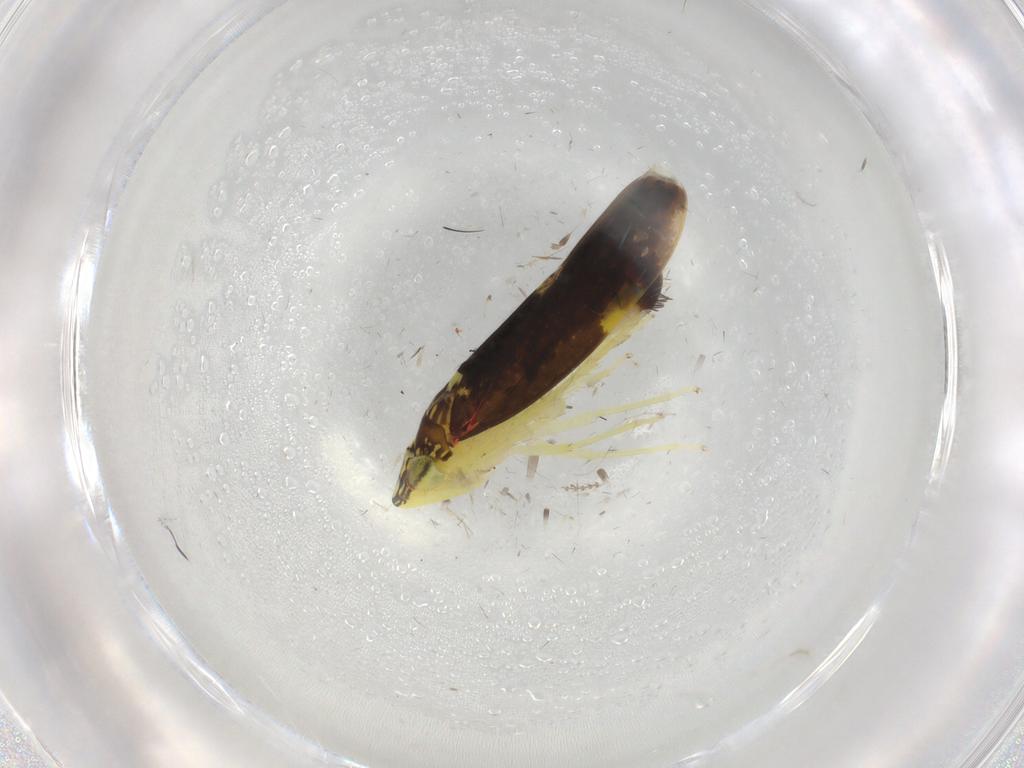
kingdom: Animalia
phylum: Arthropoda
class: Insecta
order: Hemiptera
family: Cicadellidae
